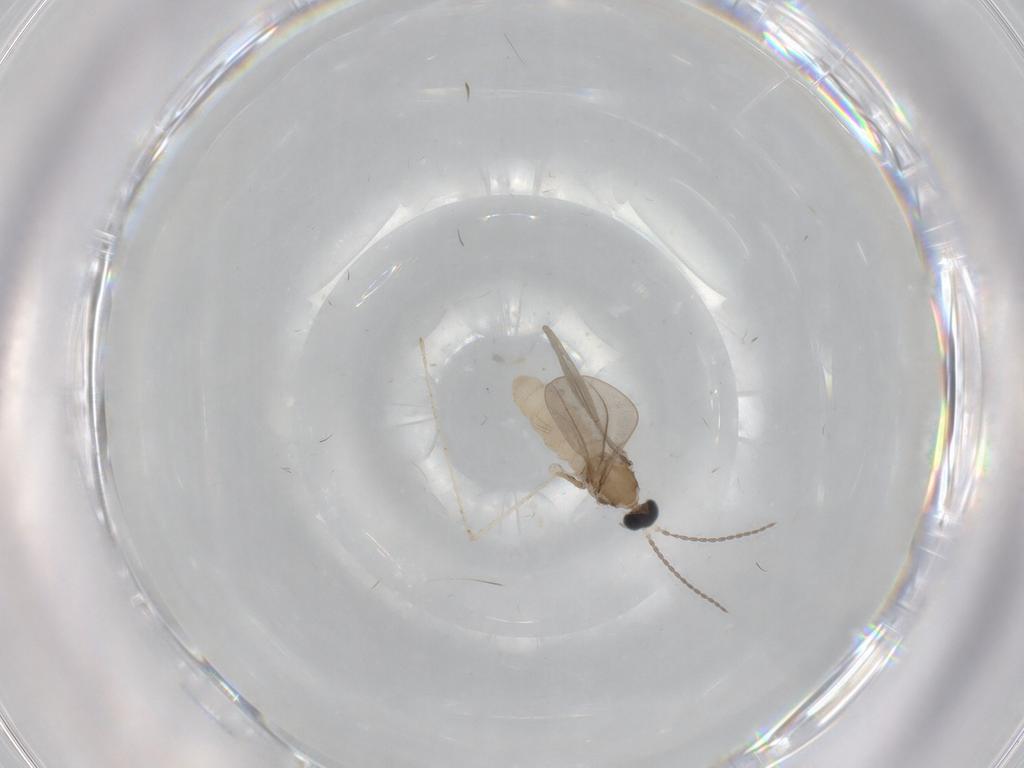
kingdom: Animalia
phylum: Arthropoda
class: Insecta
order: Diptera
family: Cecidomyiidae
